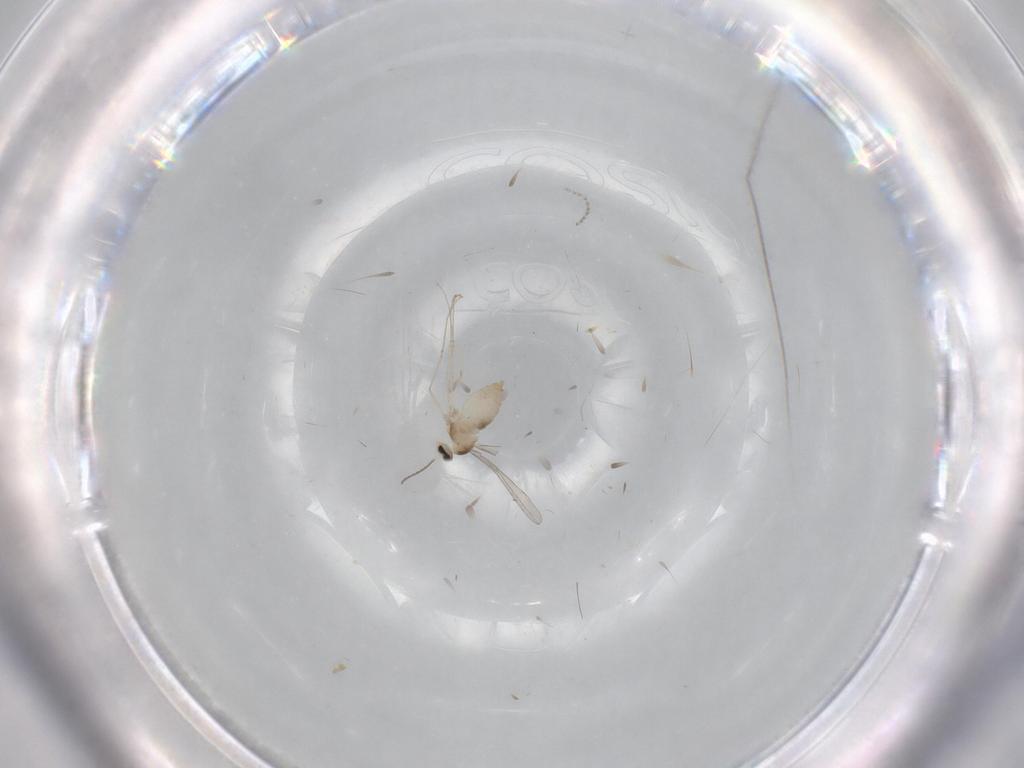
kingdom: Animalia
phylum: Arthropoda
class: Insecta
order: Diptera
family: Cecidomyiidae
